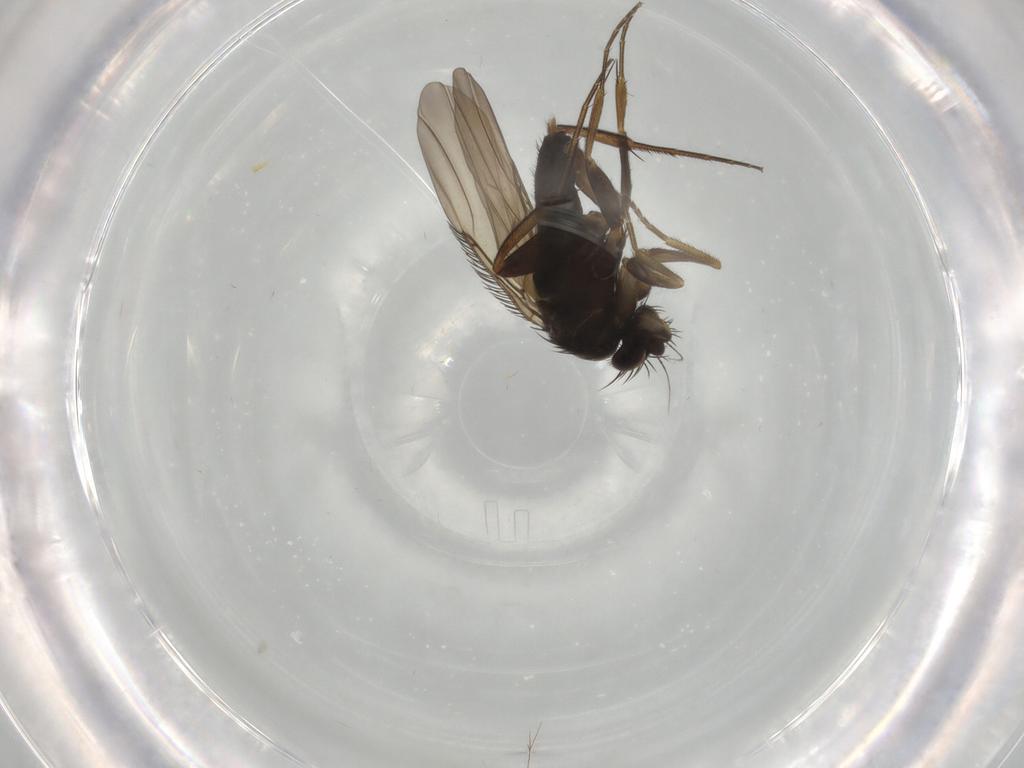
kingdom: Animalia
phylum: Arthropoda
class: Insecta
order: Diptera
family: Phoridae
